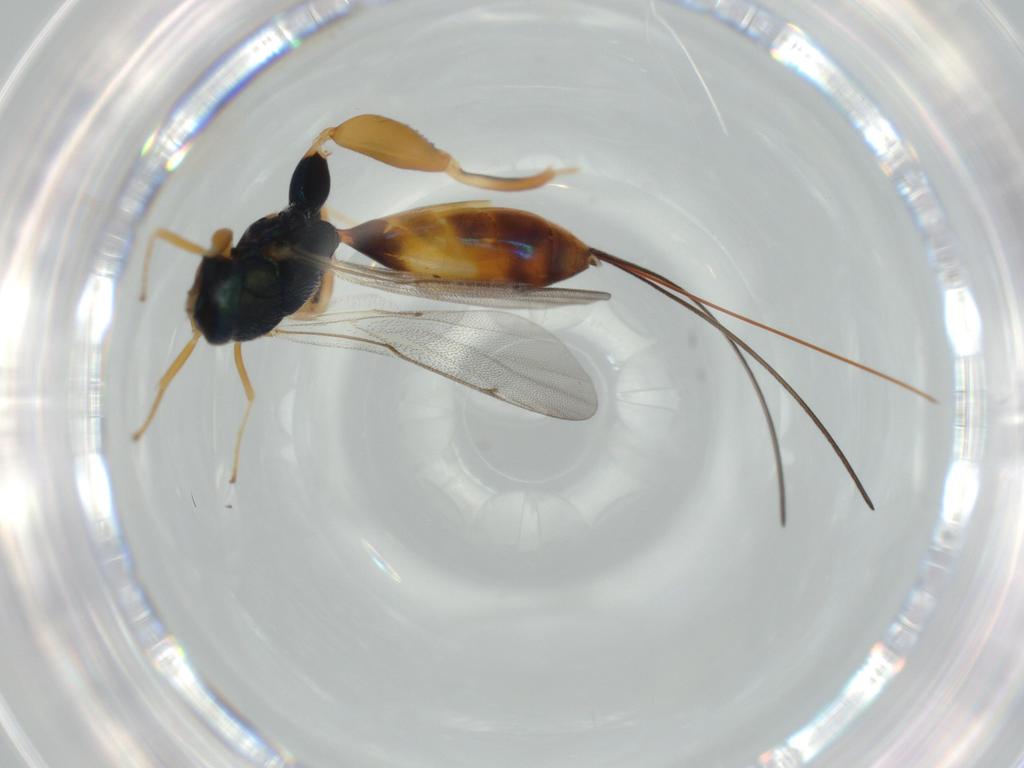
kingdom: Animalia
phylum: Arthropoda
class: Insecta
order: Hymenoptera
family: Torymidae
